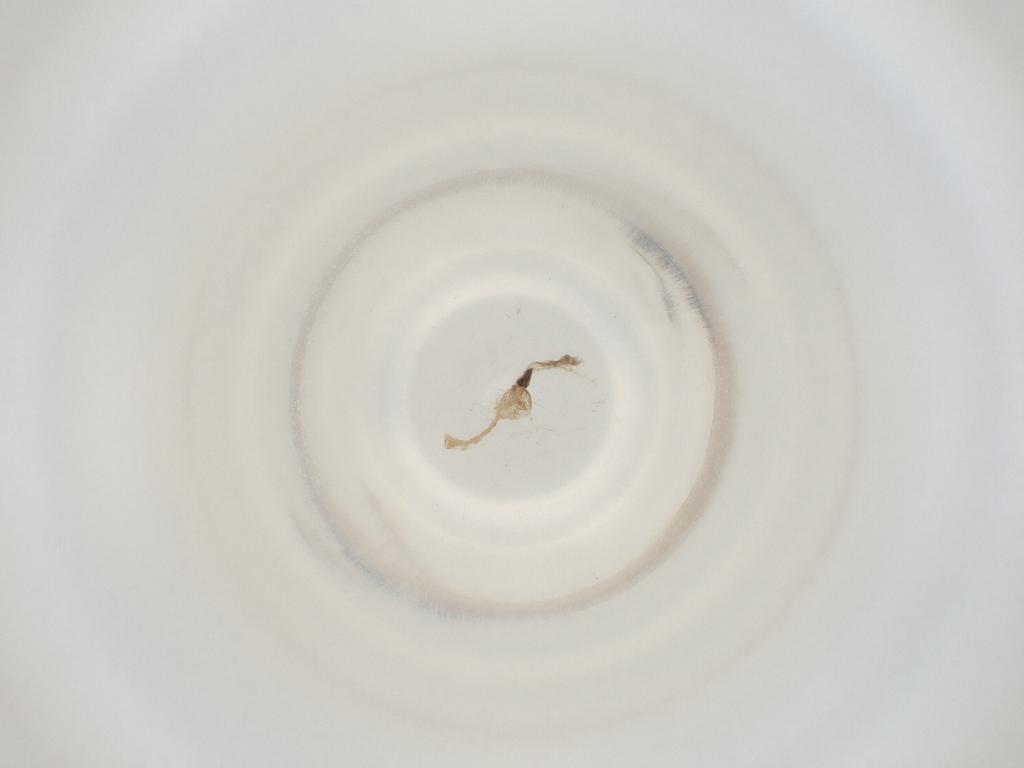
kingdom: Animalia
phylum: Arthropoda
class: Insecta
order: Diptera
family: Cecidomyiidae
